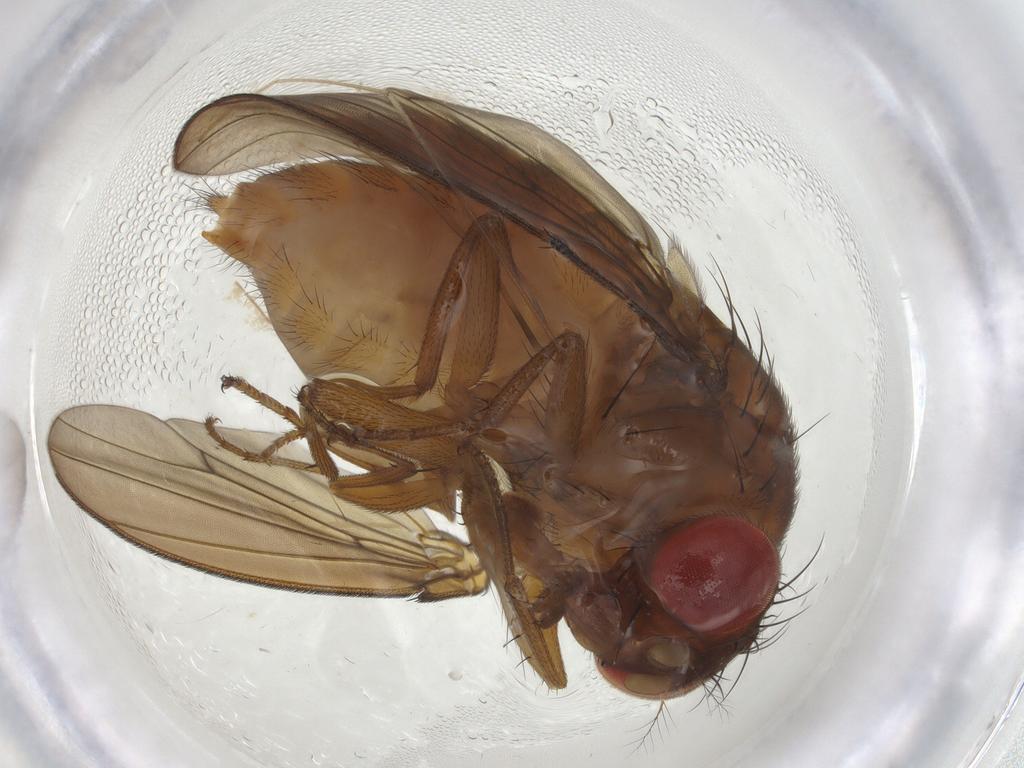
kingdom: Animalia
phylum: Arthropoda
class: Insecta
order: Diptera
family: Drosophilidae
